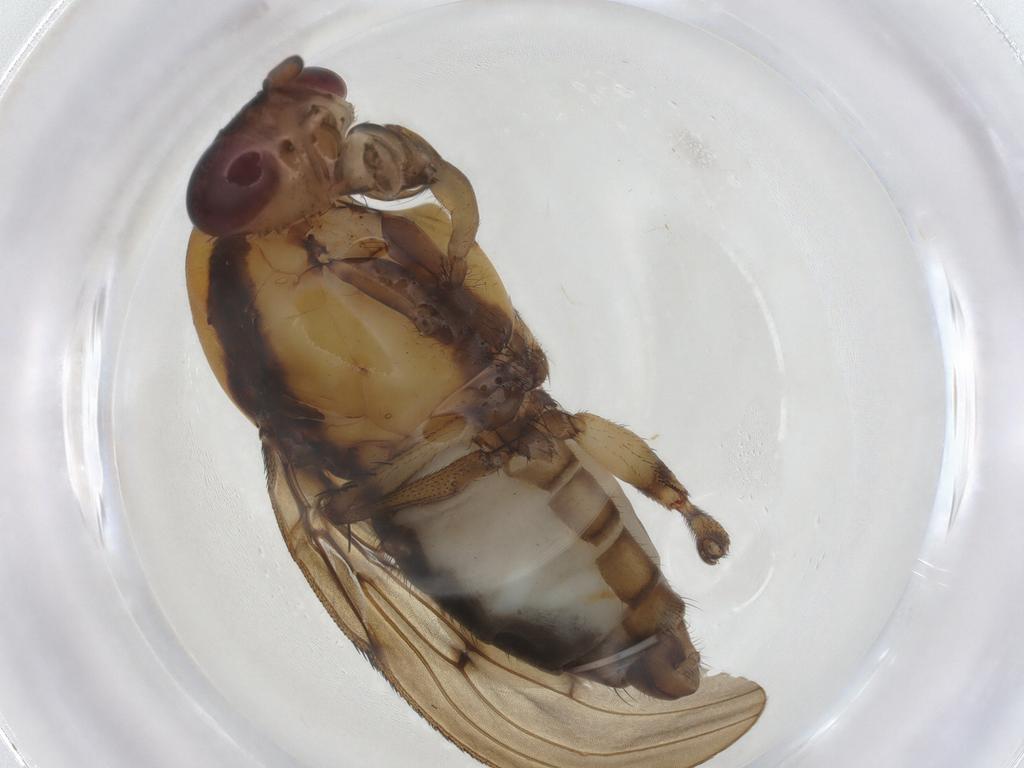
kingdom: Animalia
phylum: Arthropoda
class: Insecta
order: Diptera
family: Heleomyzidae
